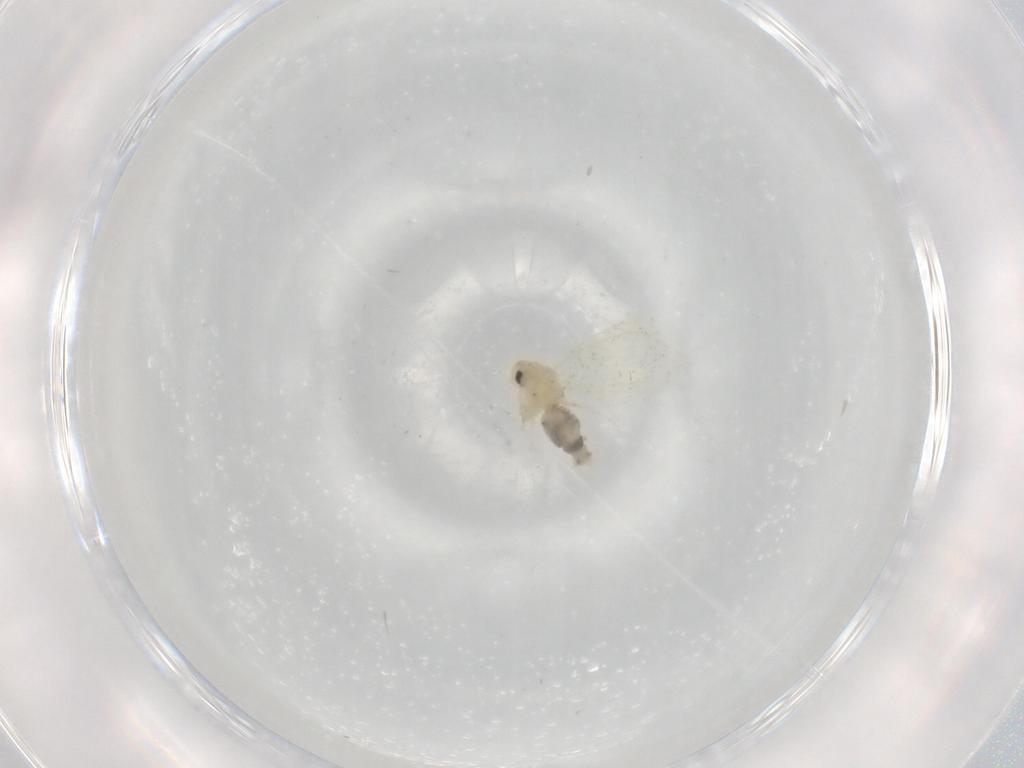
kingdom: Animalia
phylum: Arthropoda
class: Insecta
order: Hemiptera
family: Aleyrodidae
